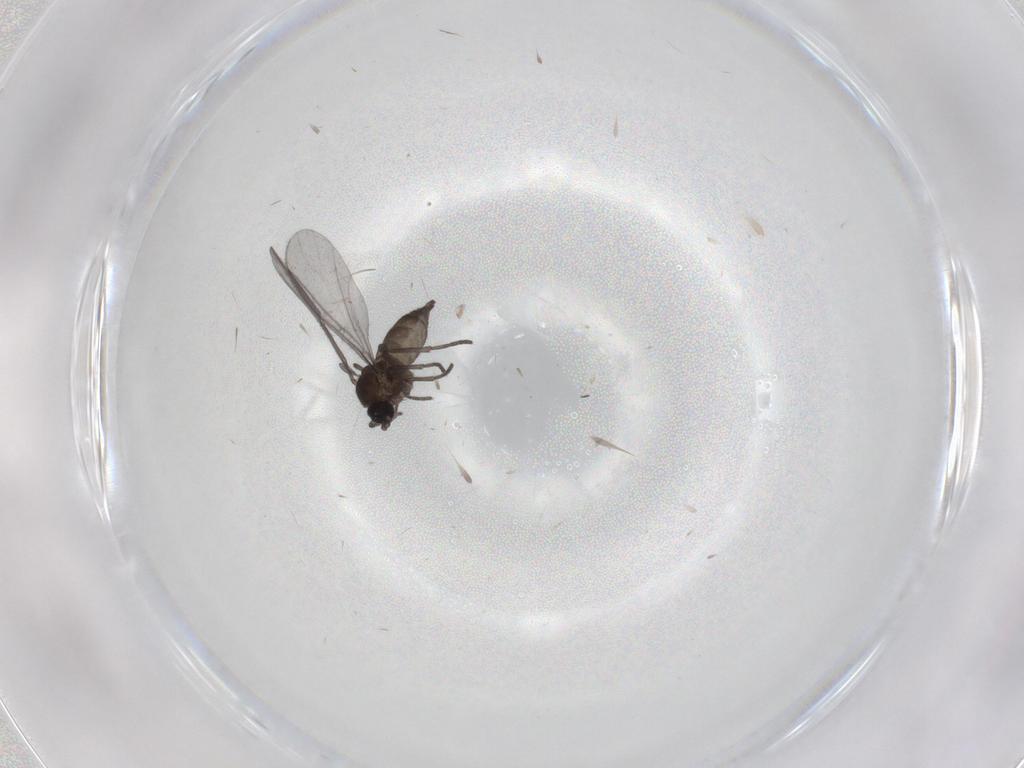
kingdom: Animalia
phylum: Arthropoda
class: Insecta
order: Diptera
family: Sciaridae
